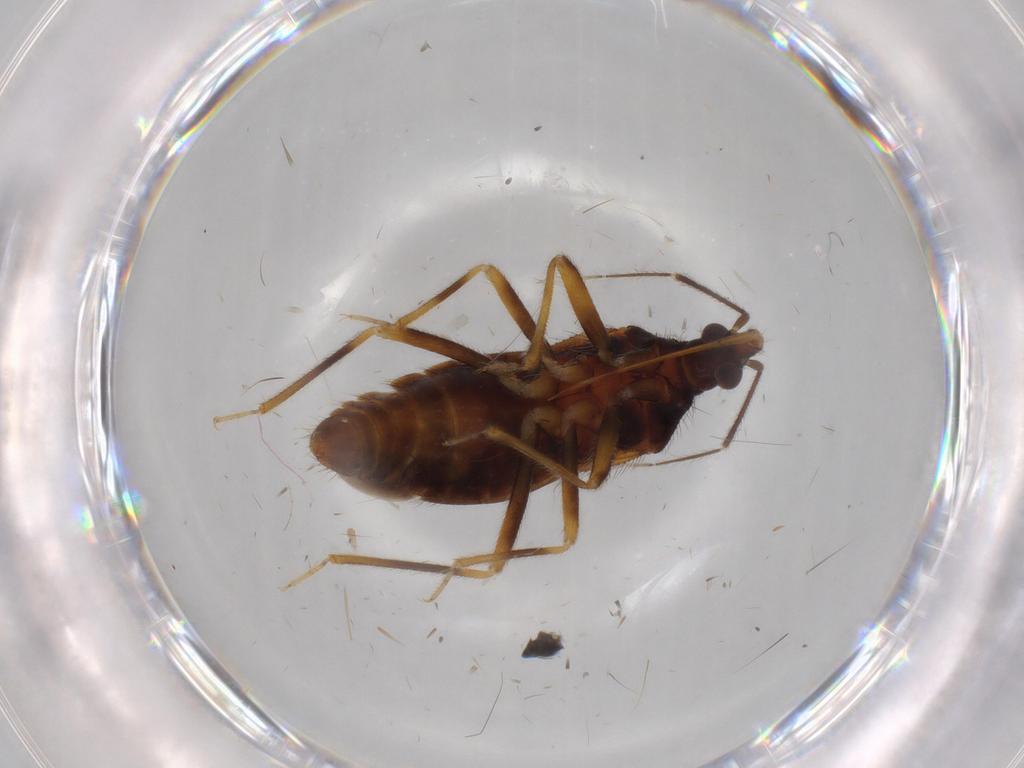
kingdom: Animalia
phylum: Arthropoda
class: Insecta
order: Hemiptera
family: Anthocoridae
